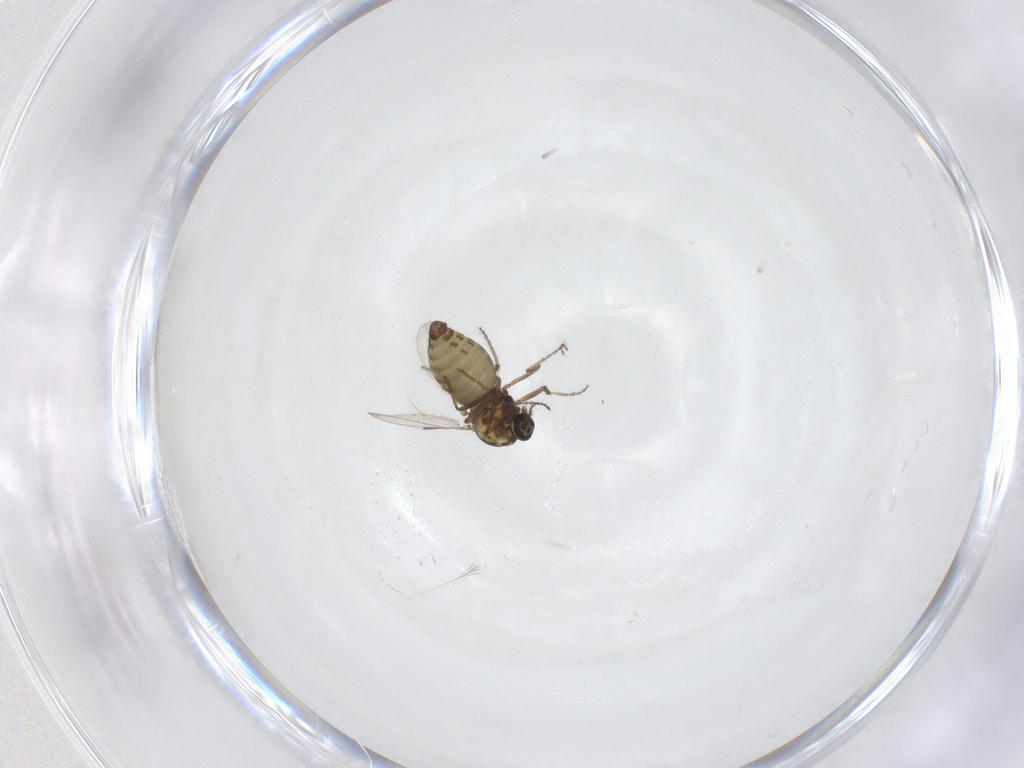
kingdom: Animalia
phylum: Arthropoda
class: Insecta
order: Diptera
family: Ceratopogonidae
